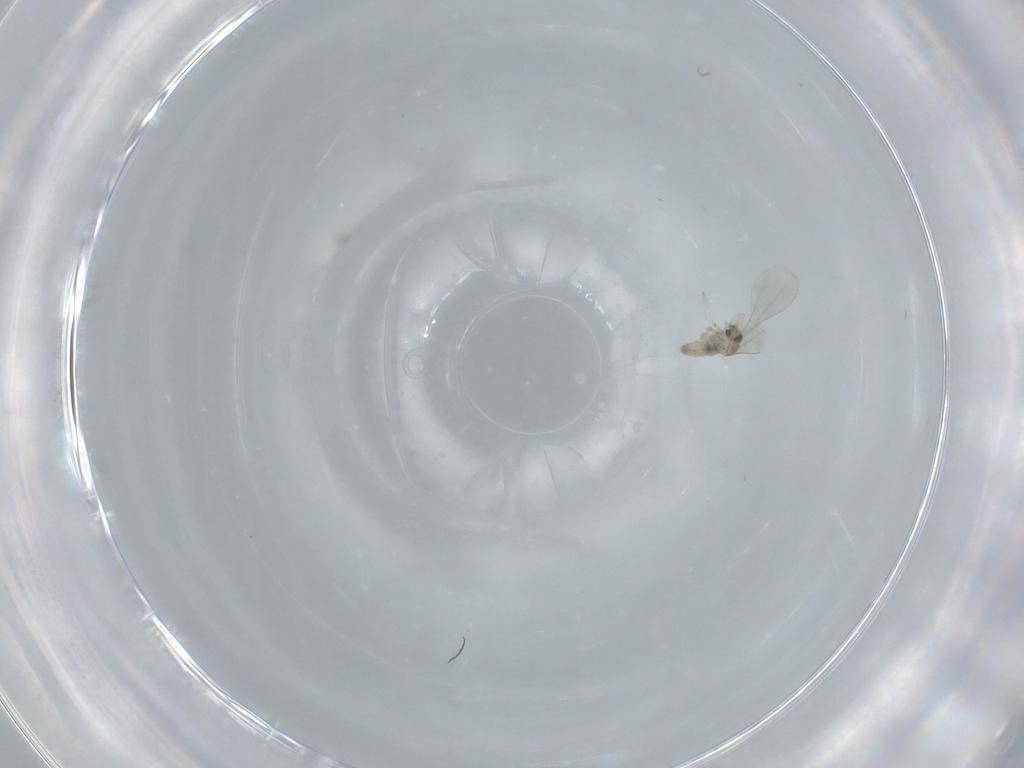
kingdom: Animalia
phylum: Arthropoda
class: Insecta
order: Diptera
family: Cecidomyiidae
